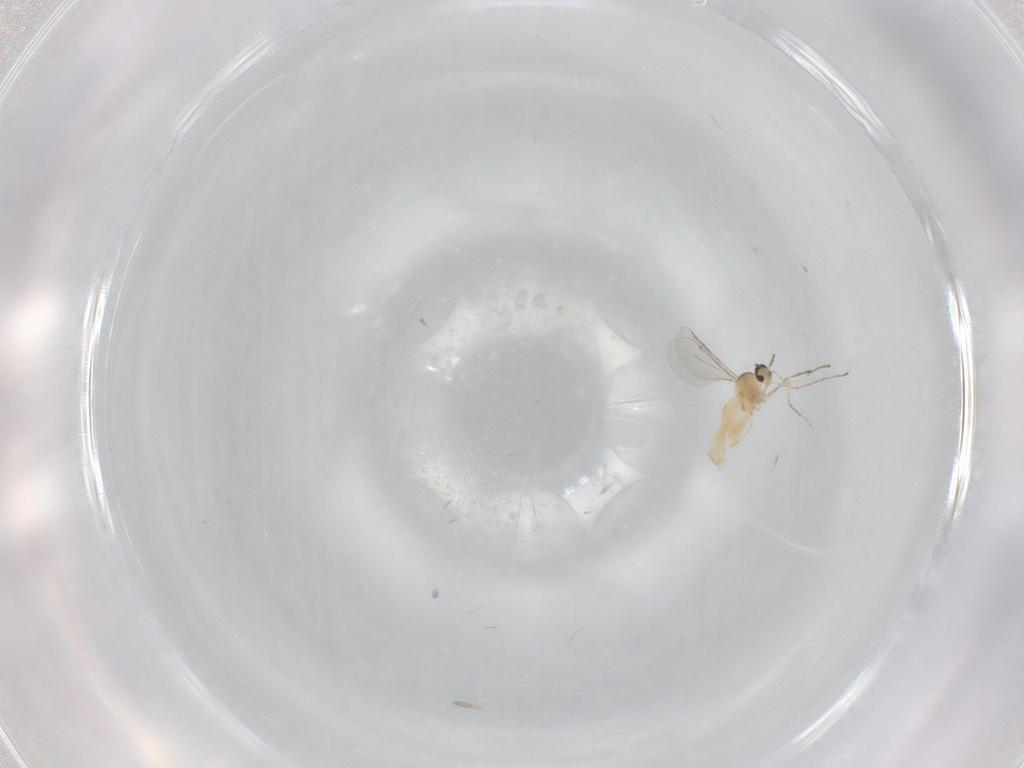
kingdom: Animalia
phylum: Arthropoda
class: Insecta
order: Diptera
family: Cecidomyiidae
